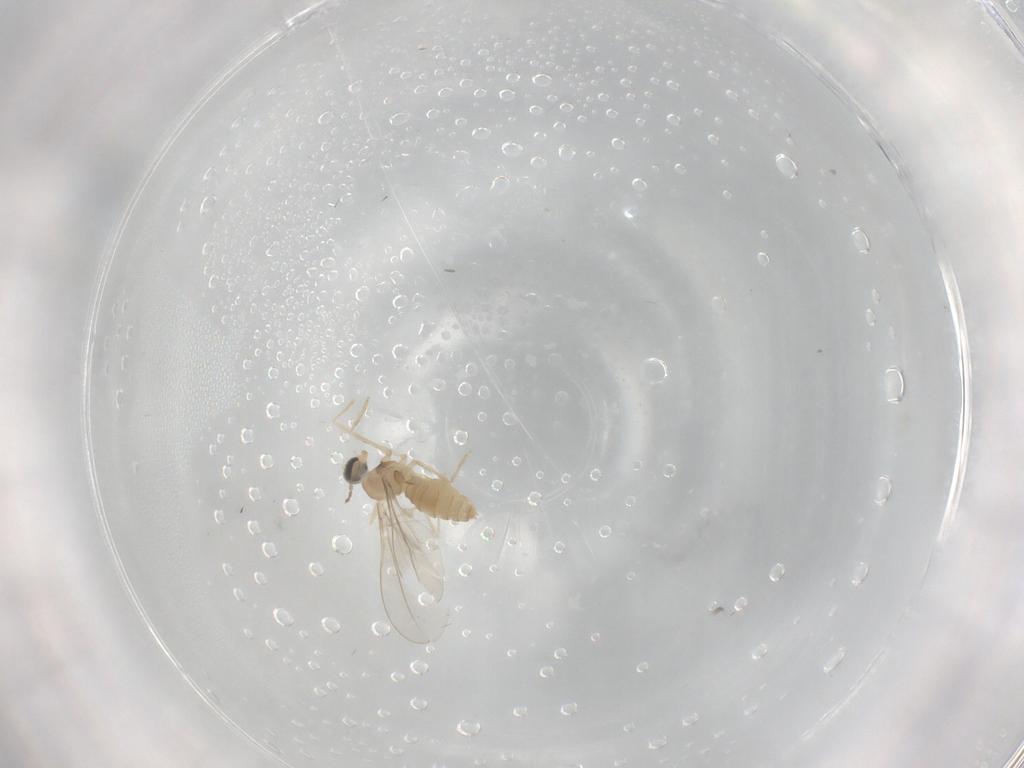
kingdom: Animalia
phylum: Arthropoda
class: Insecta
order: Diptera
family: Cecidomyiidae
